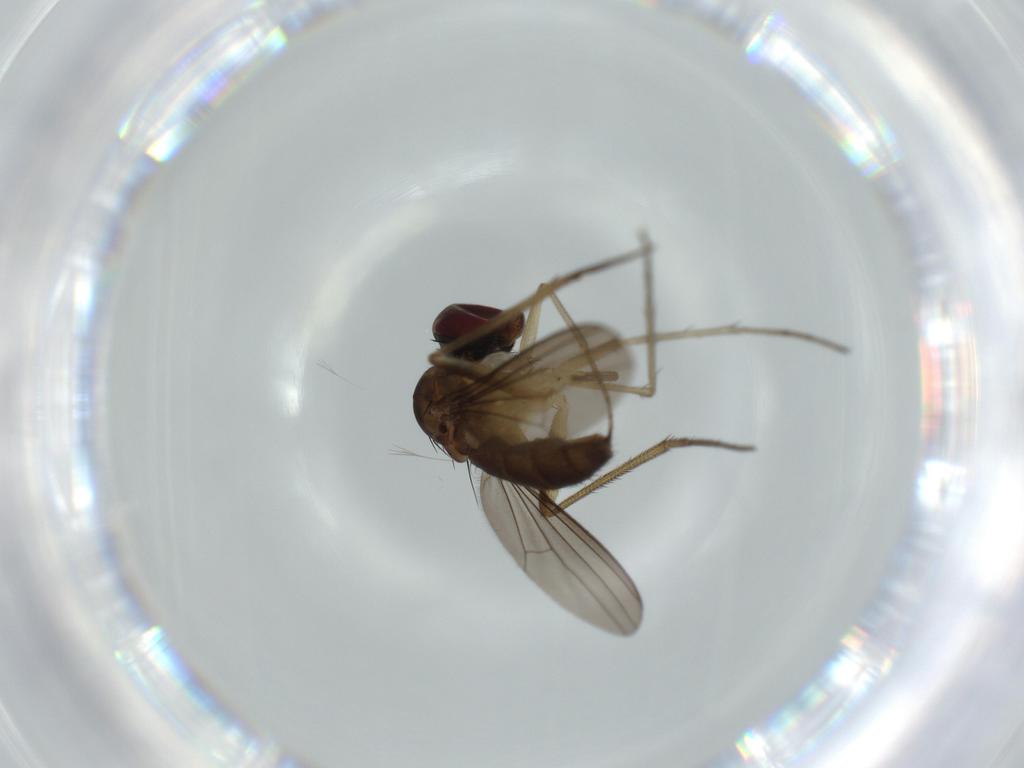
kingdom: Animalia
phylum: Arthropoda
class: Insecta
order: Diptera
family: Dolichopodidae
